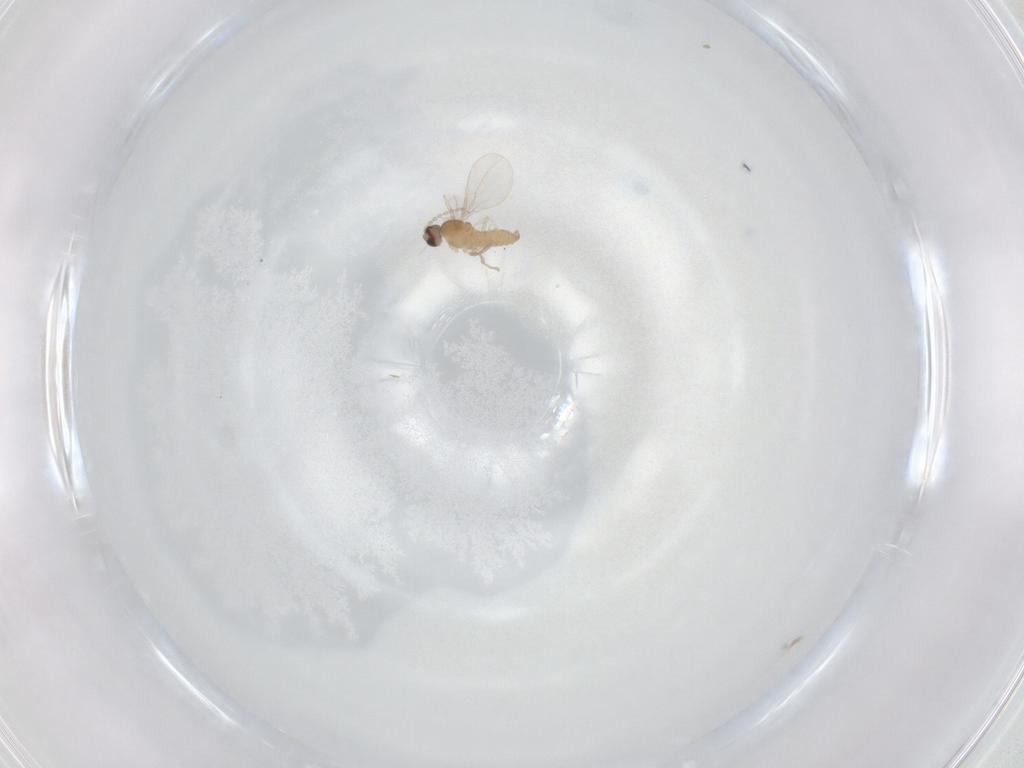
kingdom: Animalia
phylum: Arthropoda
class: Insecta
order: Diptera
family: Cecidomyiidae
